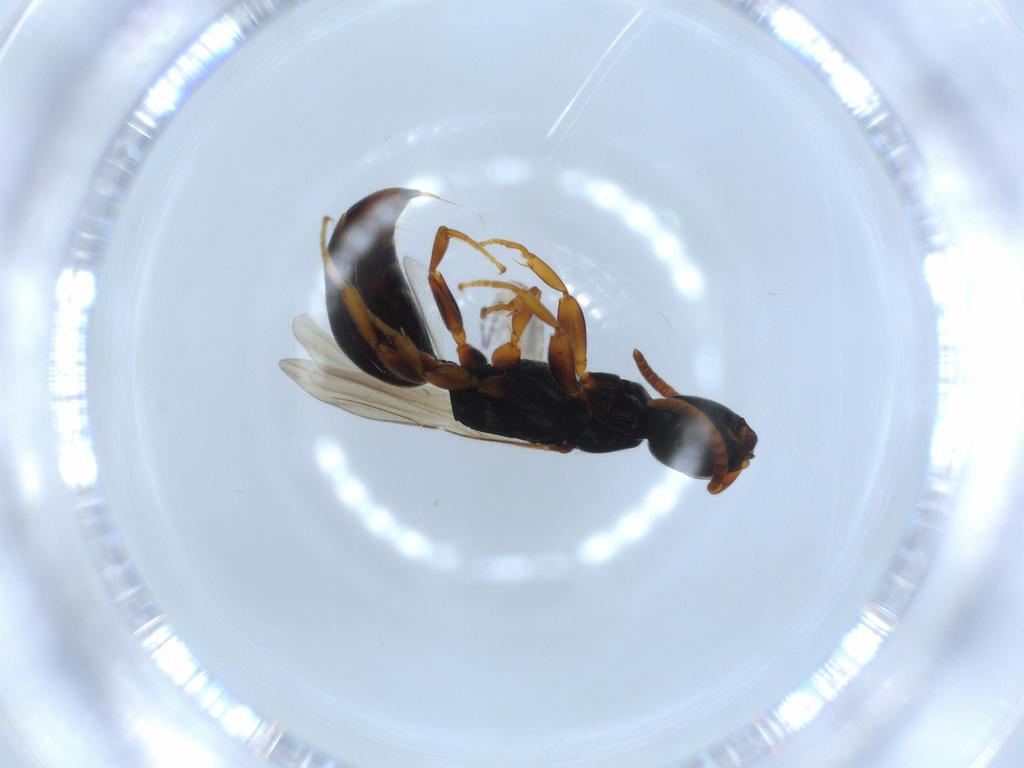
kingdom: Animalia
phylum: Arthropoda
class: Insecta
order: Hymenoptera
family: Bethylidae
